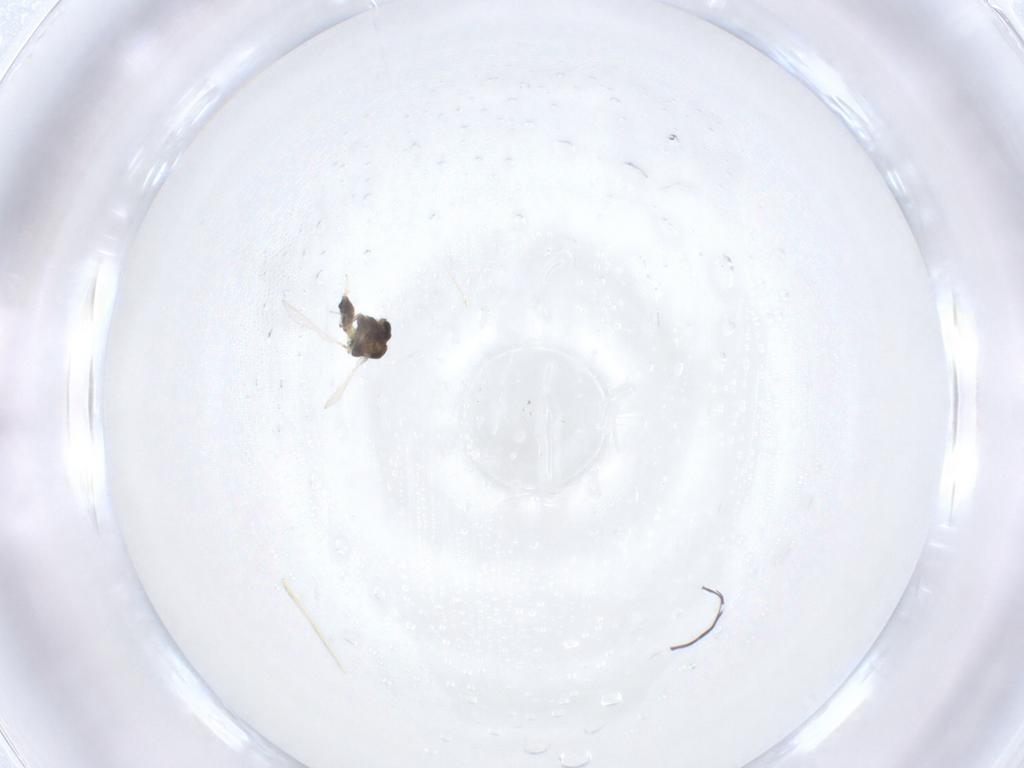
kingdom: Animalia
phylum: Arthropoda
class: Insecta
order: Diptera
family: Chironomidae
